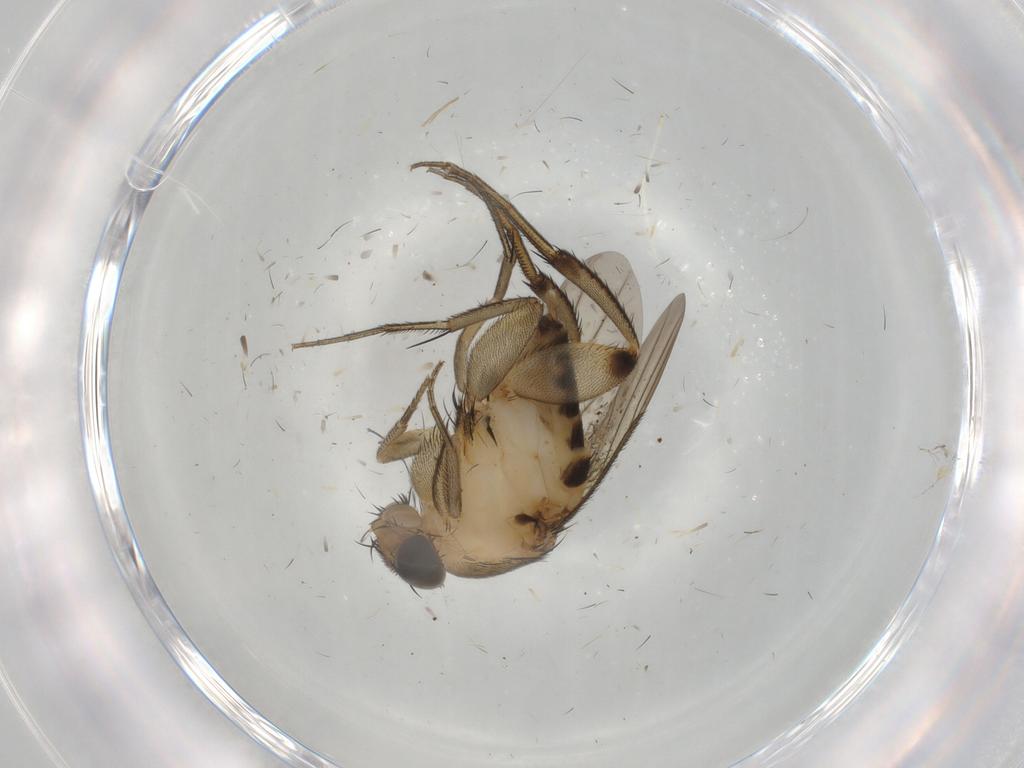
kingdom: Animalia
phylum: Arthropoda
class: Insecta
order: Diptera
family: Phoridae
